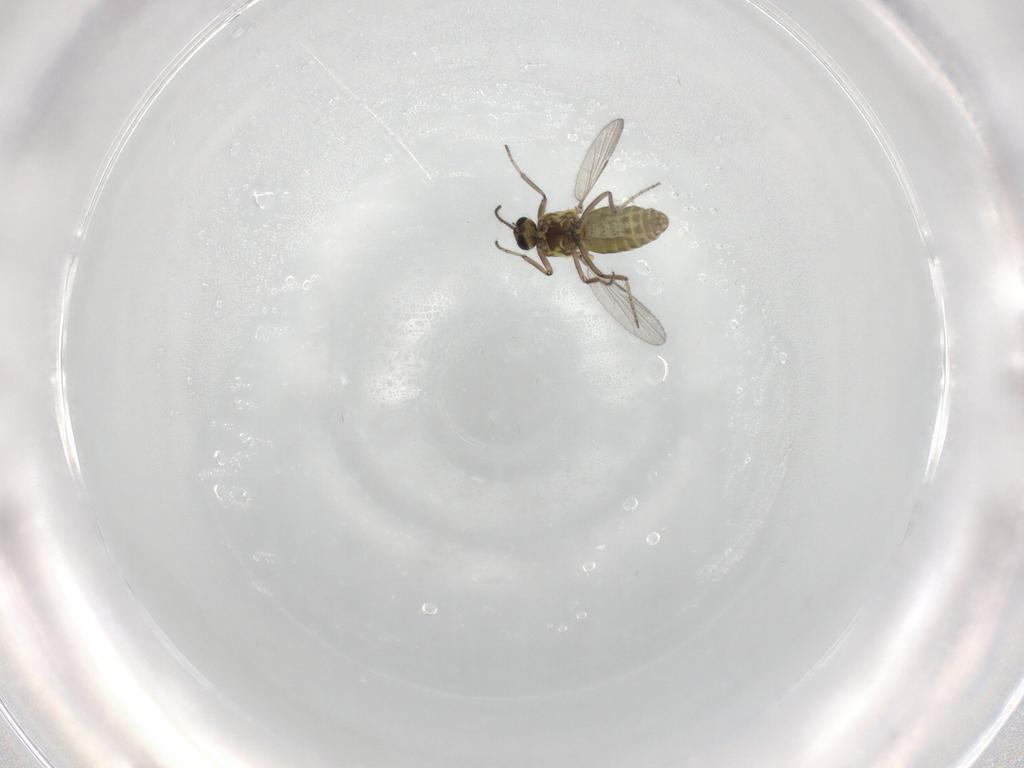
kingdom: Animalia
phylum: Arthropoda
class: Insecta
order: Diptera
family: Ceratopogonidae
